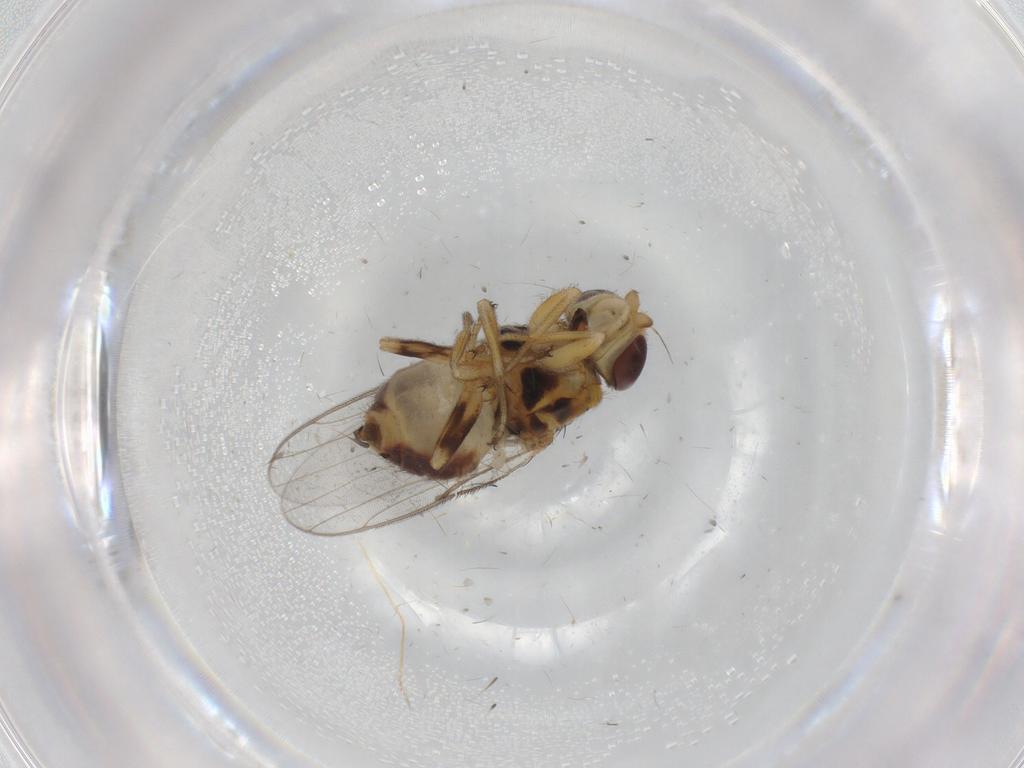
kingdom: Animalia
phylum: Arthropoda
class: Insecta
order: Diptera
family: Chloropidae
